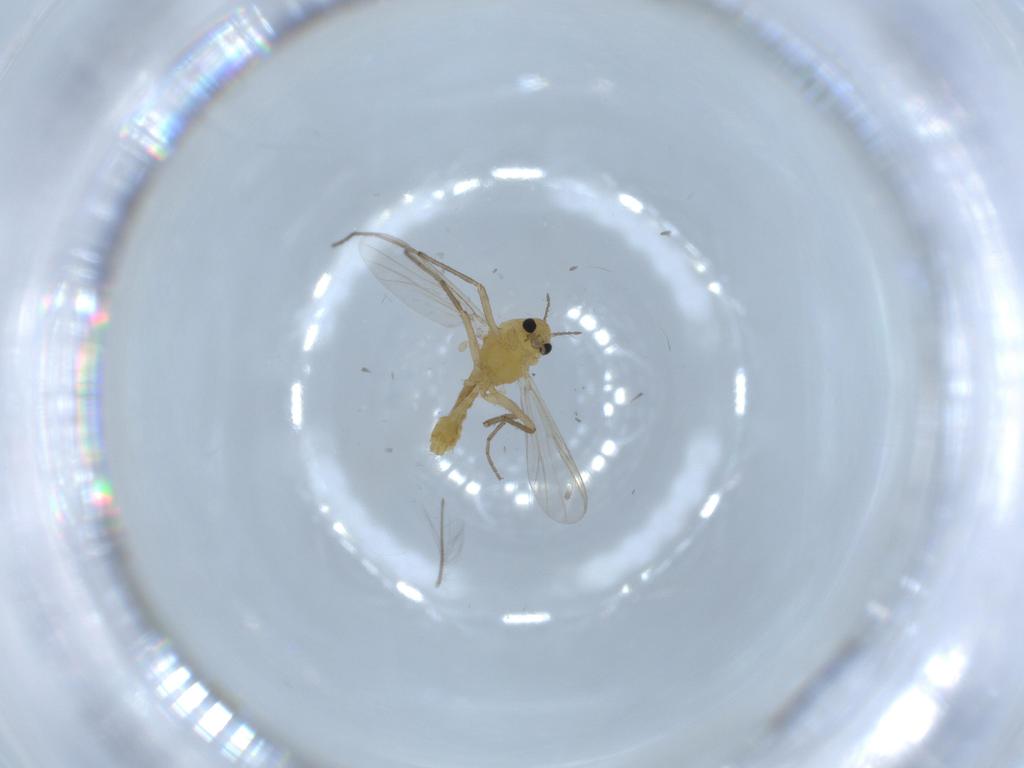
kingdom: Animalia
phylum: Arthropoda
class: Insecta
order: Diptera
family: Chironomidae
